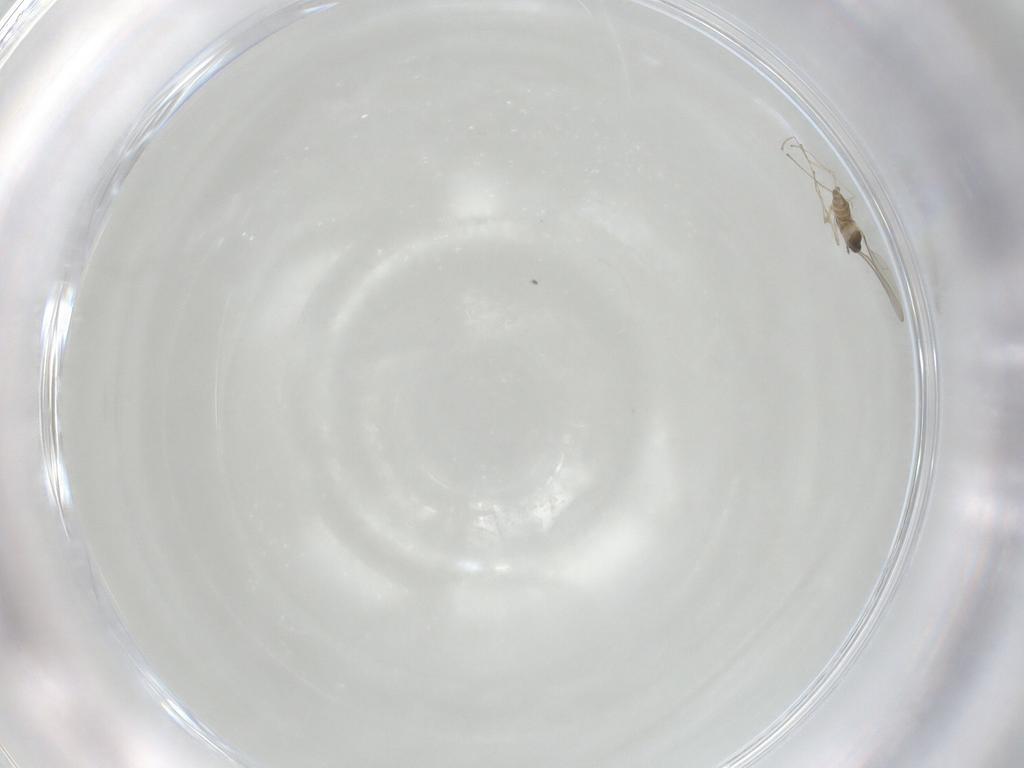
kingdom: Animalia
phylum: Arthropoda
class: Insecta
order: Diptera
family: Cecidomyiidae
